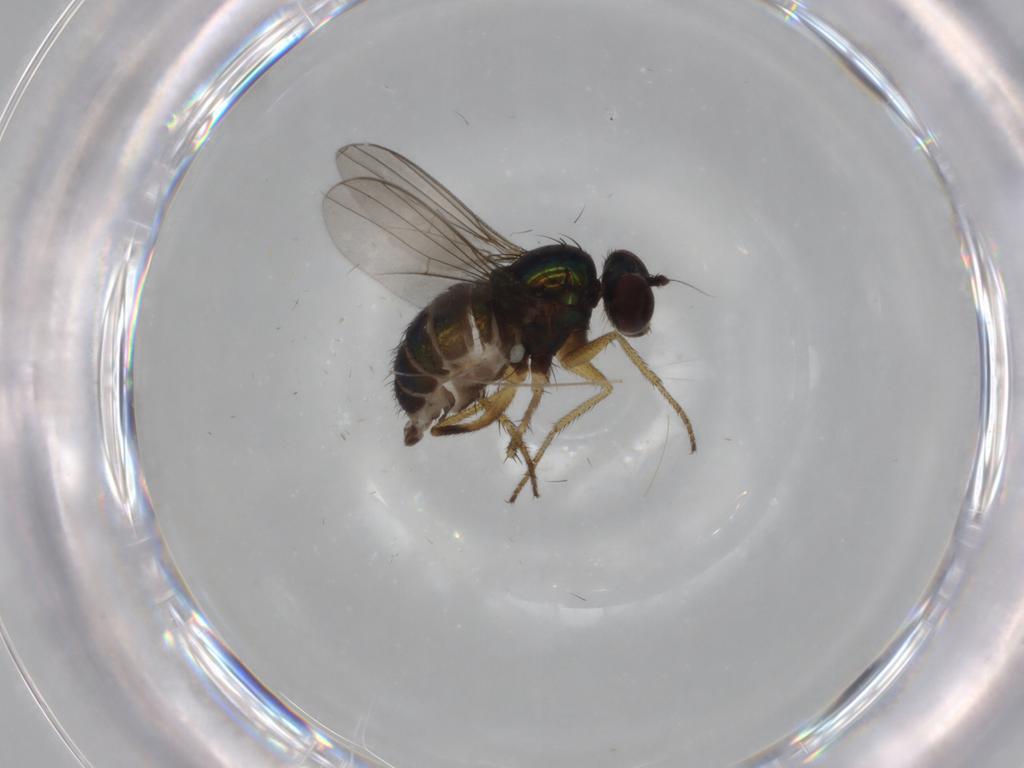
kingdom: Animalia
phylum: Arthropoda
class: Insecta
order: Diptera
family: Dolichopodidae
